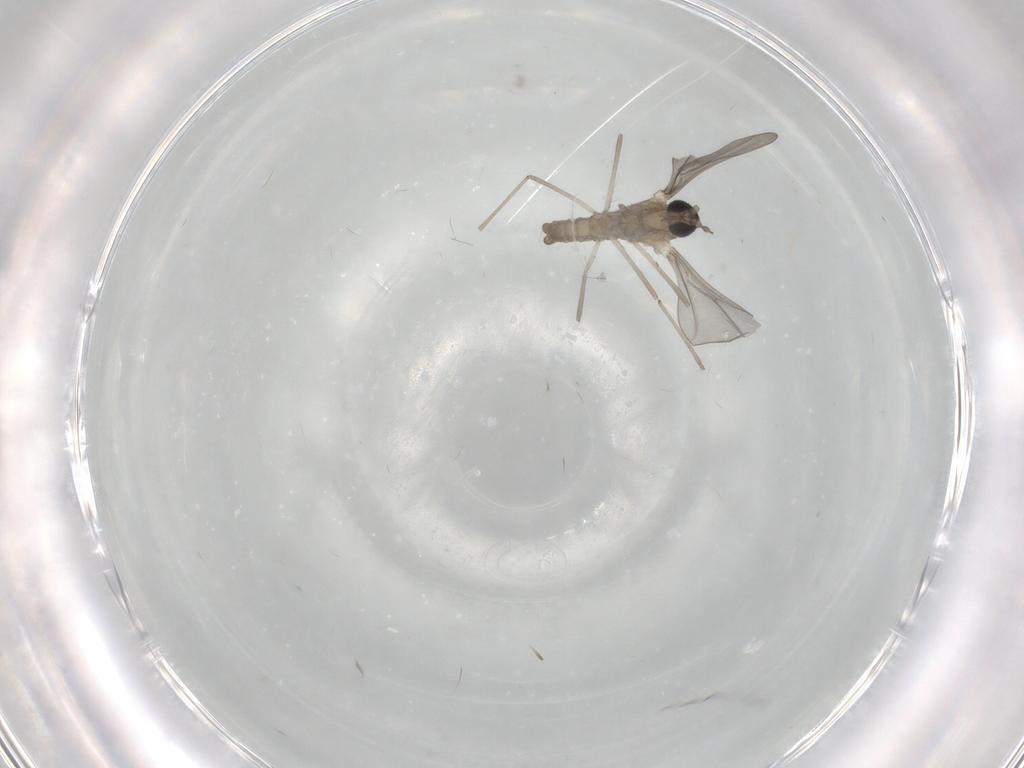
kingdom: Animalia
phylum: Arthropoda
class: Insecta
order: Diptera
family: Cecidomyiidae
